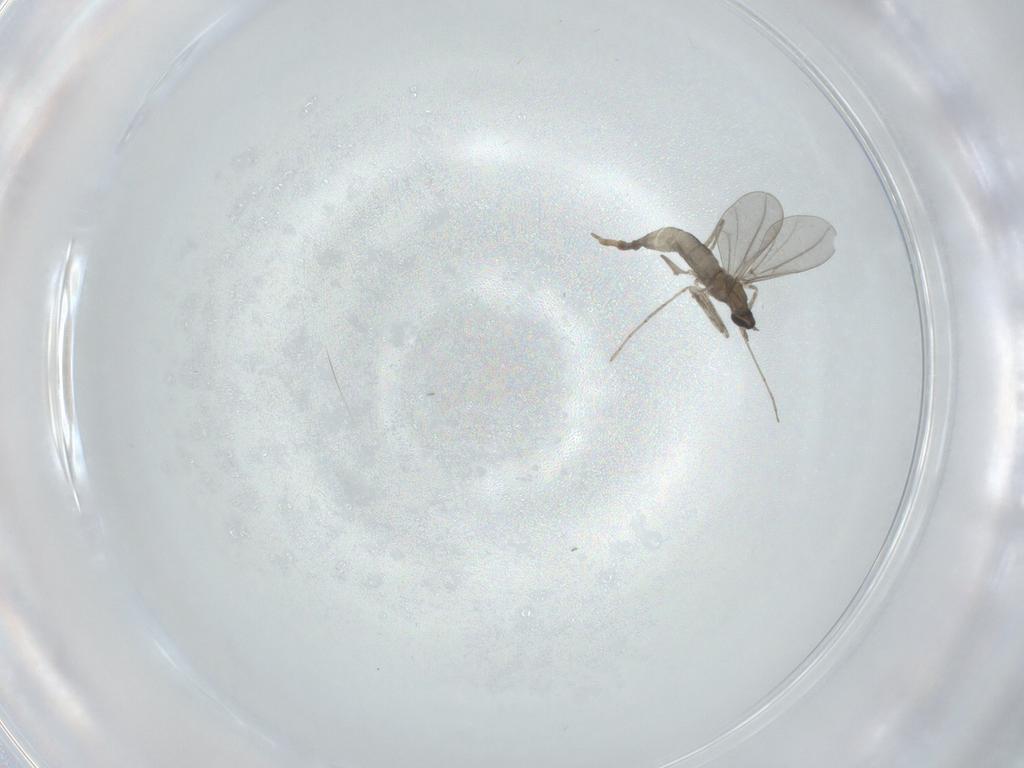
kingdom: Animalia
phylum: Arthropoda
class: Insecta
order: Diptera
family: Cecidomyiidae
